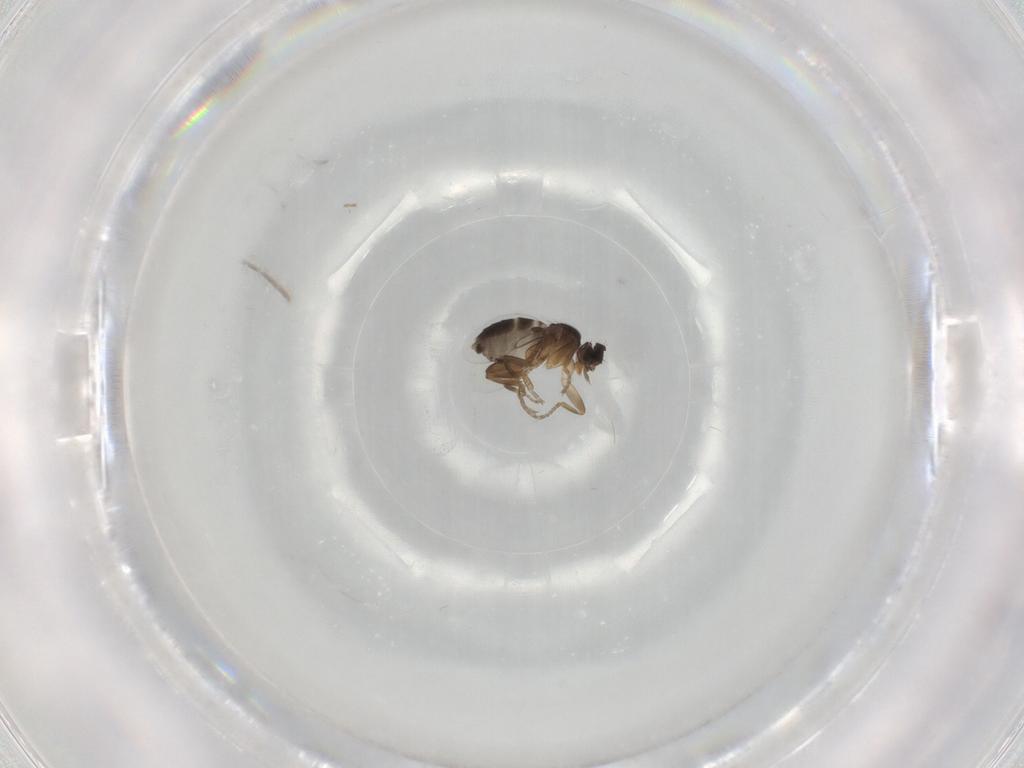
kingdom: Animalia
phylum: Arthropoda
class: Insecta
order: Diptera
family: Phoridae
